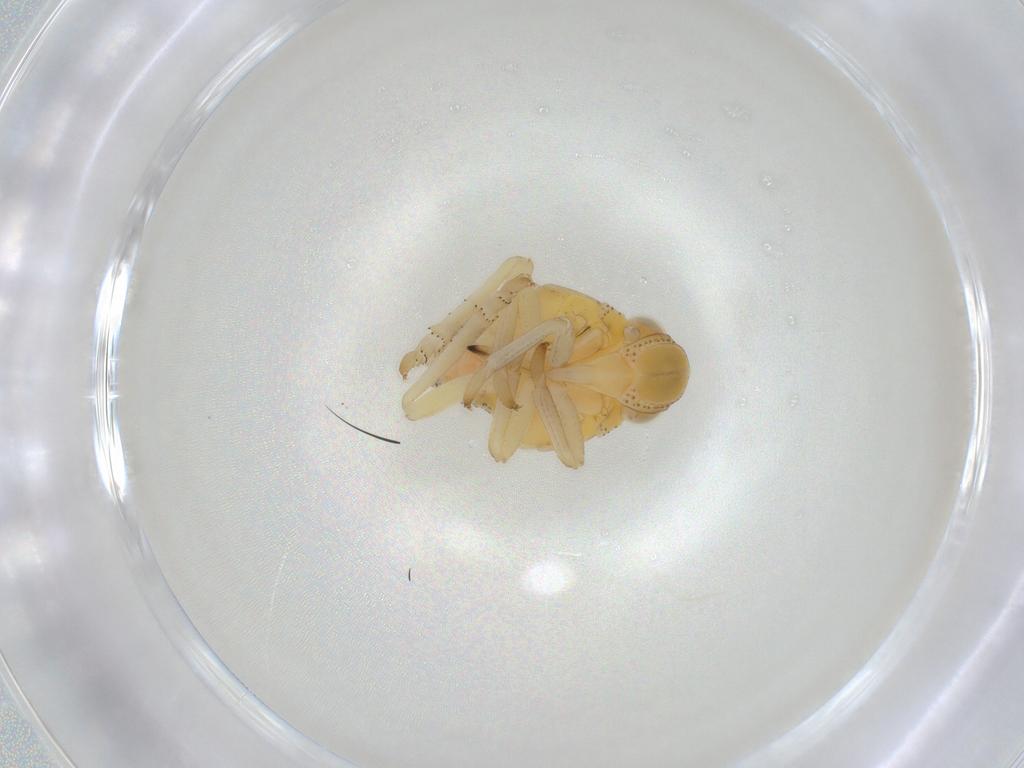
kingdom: Animalia
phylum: Arthropoda
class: Insecta
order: Hemiptera
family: Tropiduchidae
